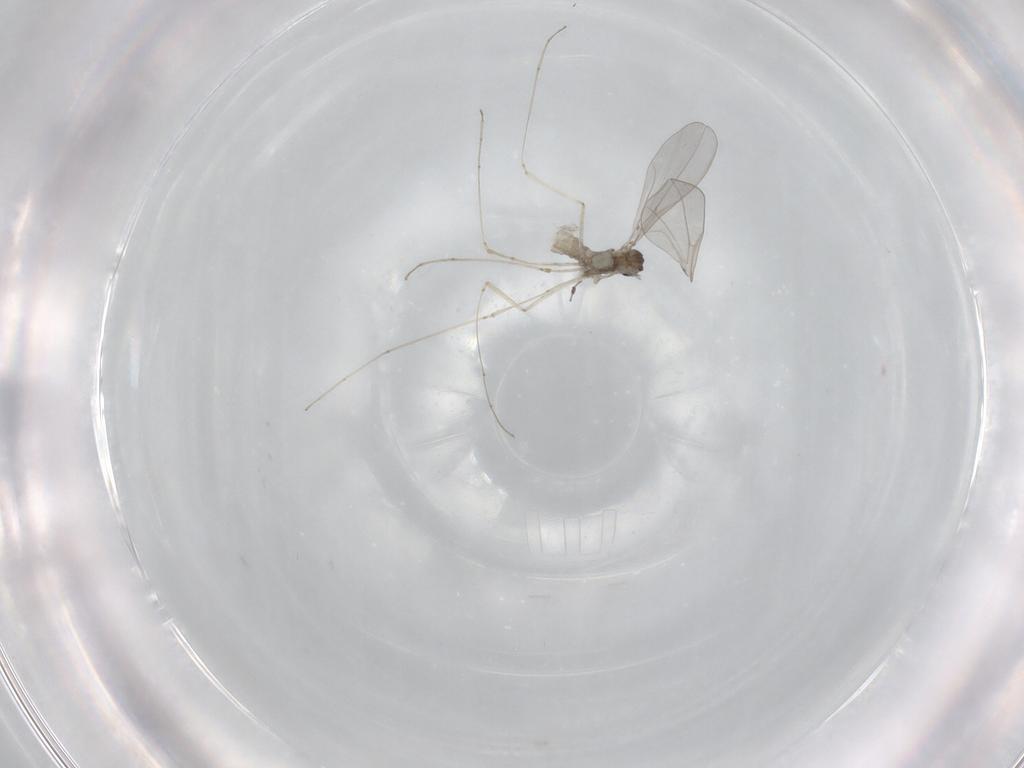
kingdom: Animalia
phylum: Arthropoda
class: Insecta
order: Diptera
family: Cecidomyiidae
